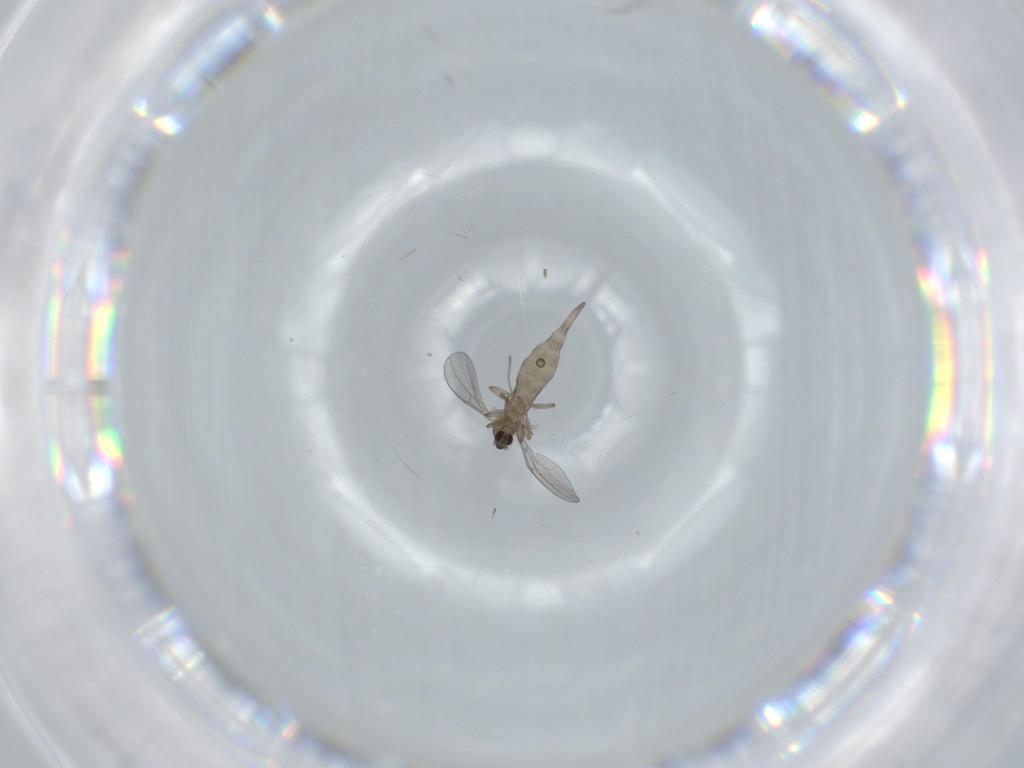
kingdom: Animalia
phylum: Arthropoda
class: Insecta
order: Diptera
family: Cecidomyiidae
